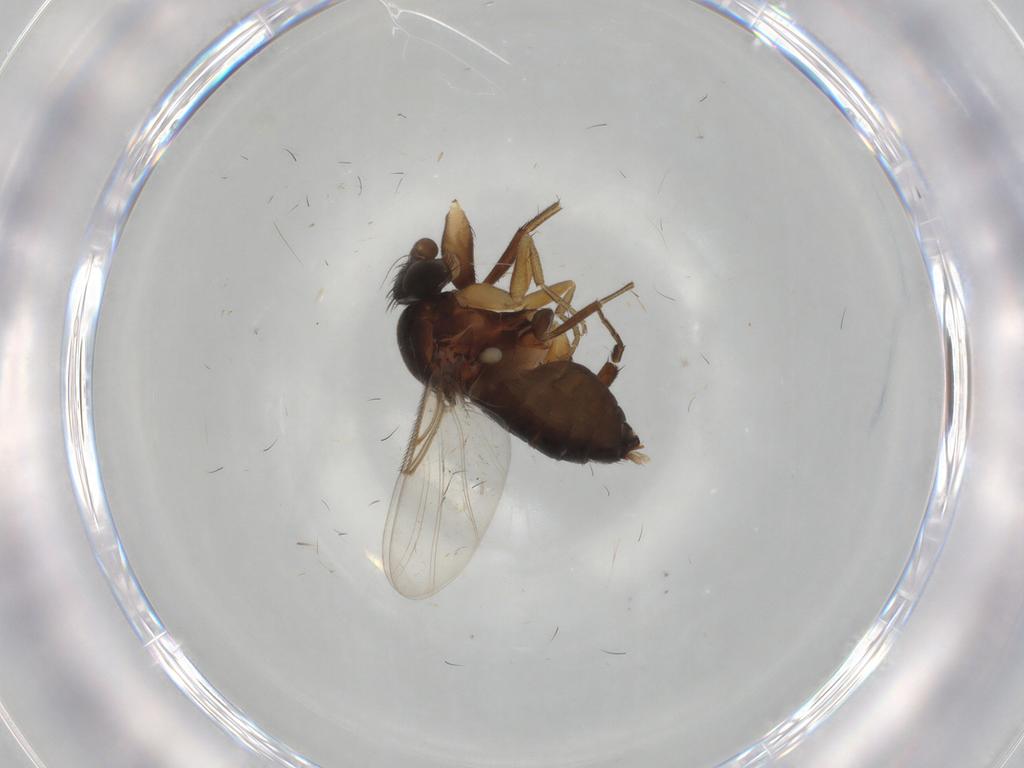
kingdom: Animalia
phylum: Arthropoda
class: Insecta
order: Diptera
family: Phoridae
